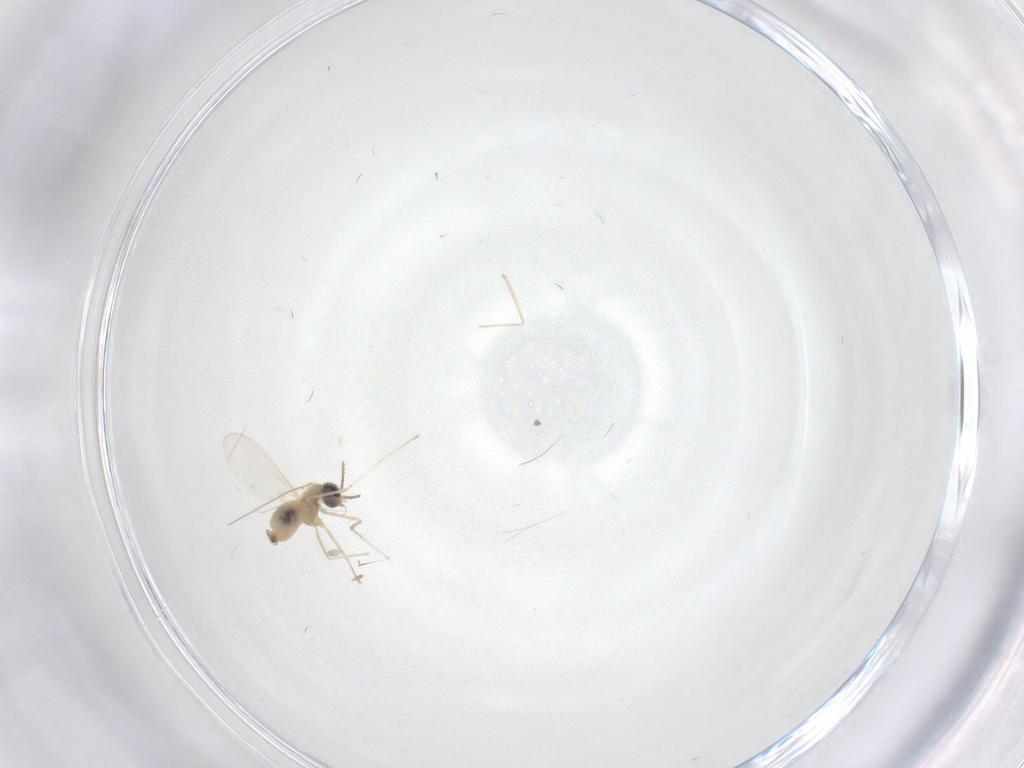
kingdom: Animalia
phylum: Arthropoda
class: Insecta
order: Diptera
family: Cecidomyiidae
